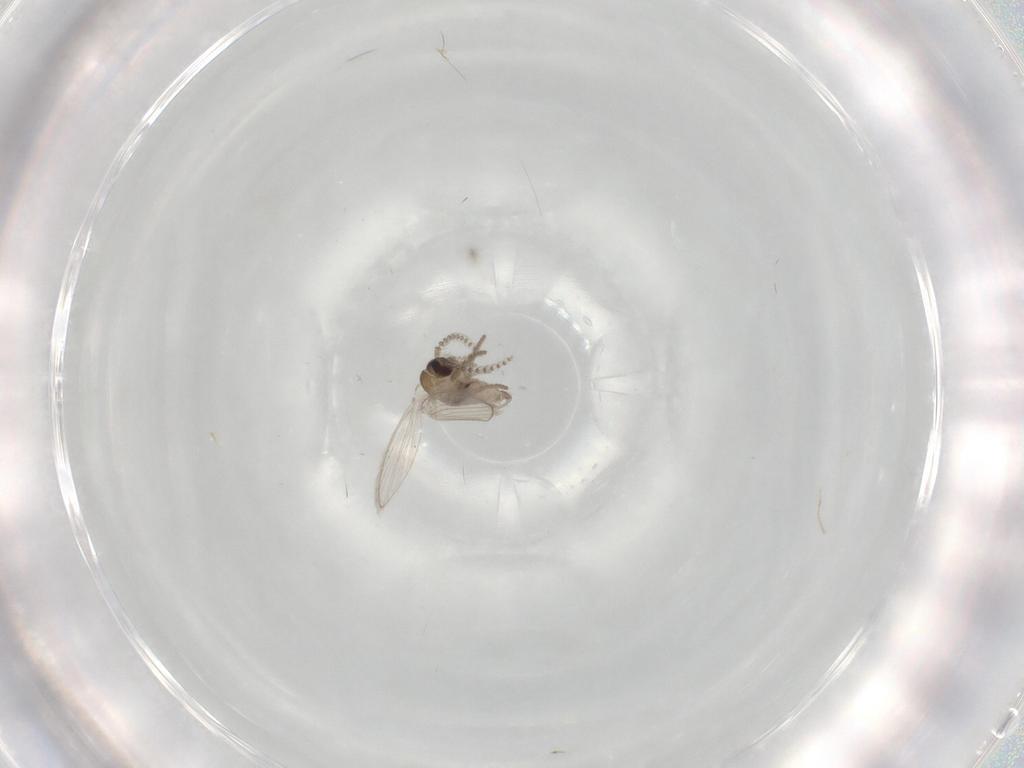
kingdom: Animalia
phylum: Arthropoda
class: Insecta
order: Diptera
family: Psychodidae
